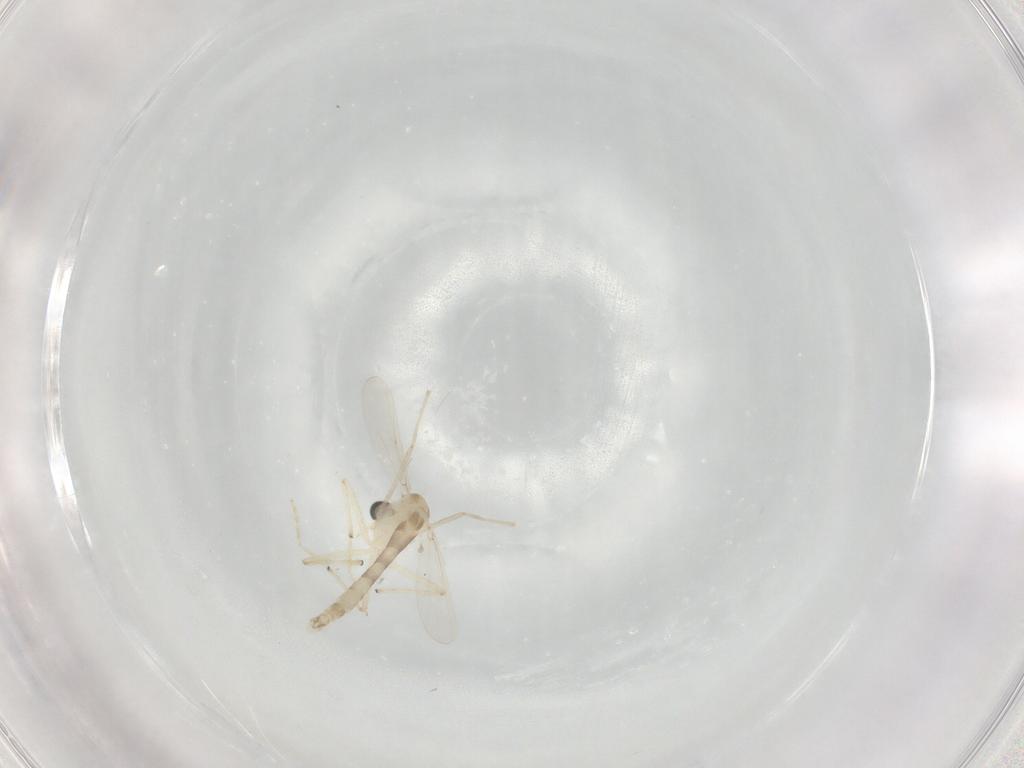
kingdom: Animalia
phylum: Arthropoda
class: Insecta
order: Diptera
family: Chironomidae
